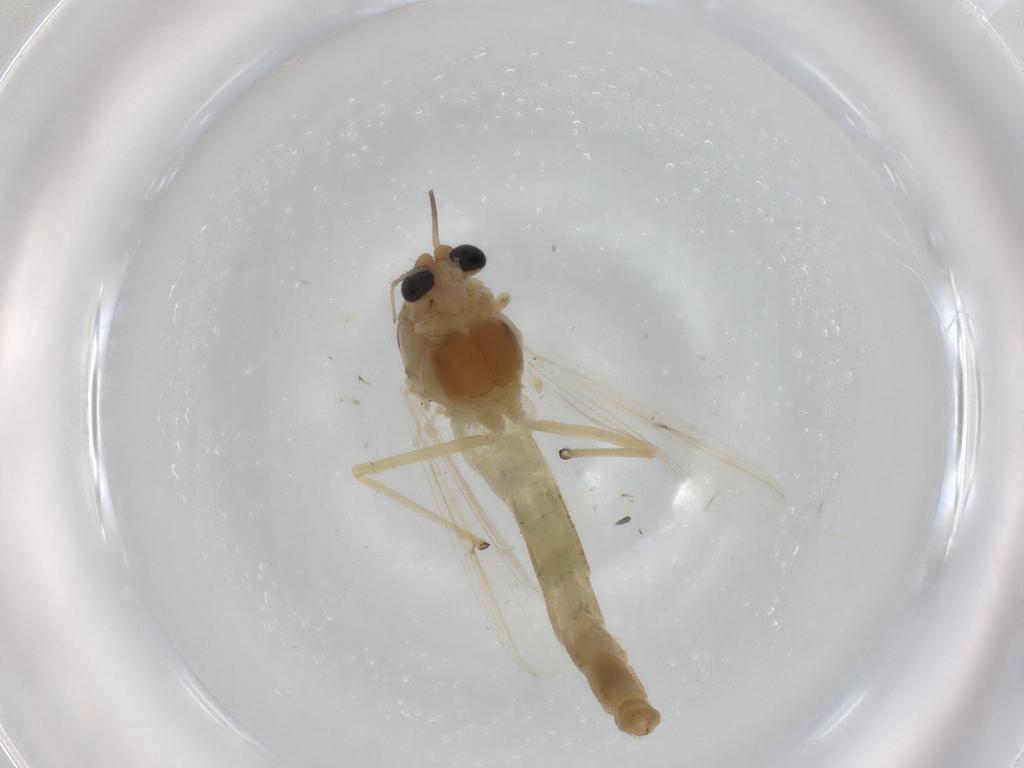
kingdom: Animalia
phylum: Arthropoda
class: Insecta
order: Diptera
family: Chironomidae
